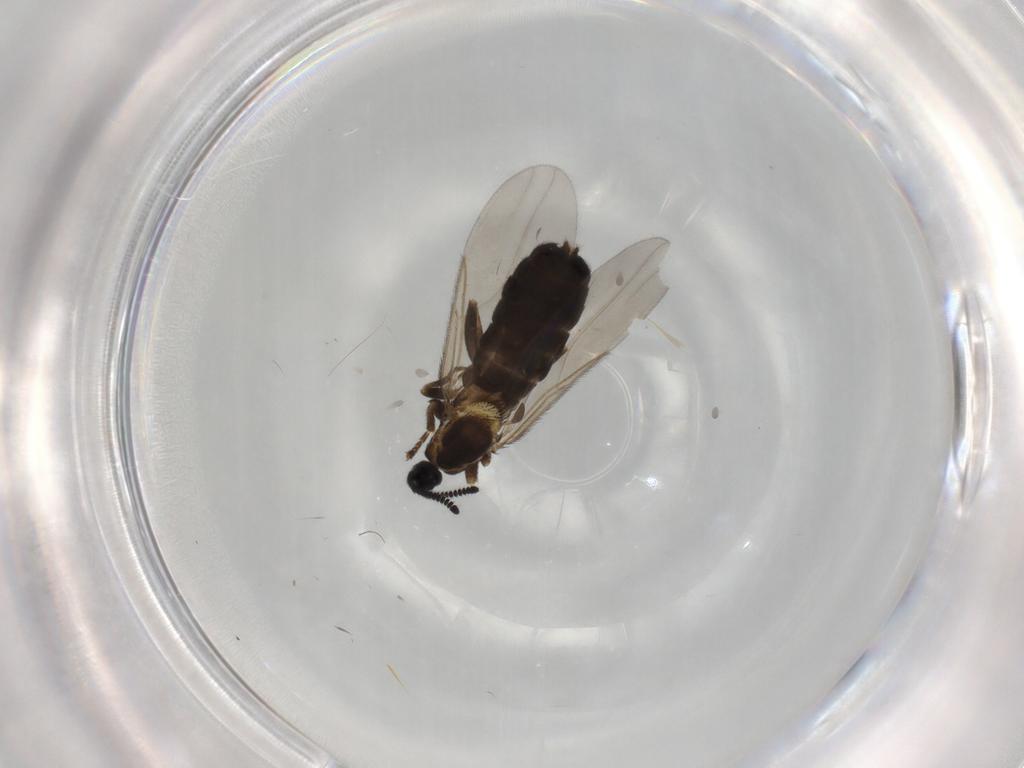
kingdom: Animalia
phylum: Arthropoda
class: Insecta
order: Diptera
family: Scatopsidae
